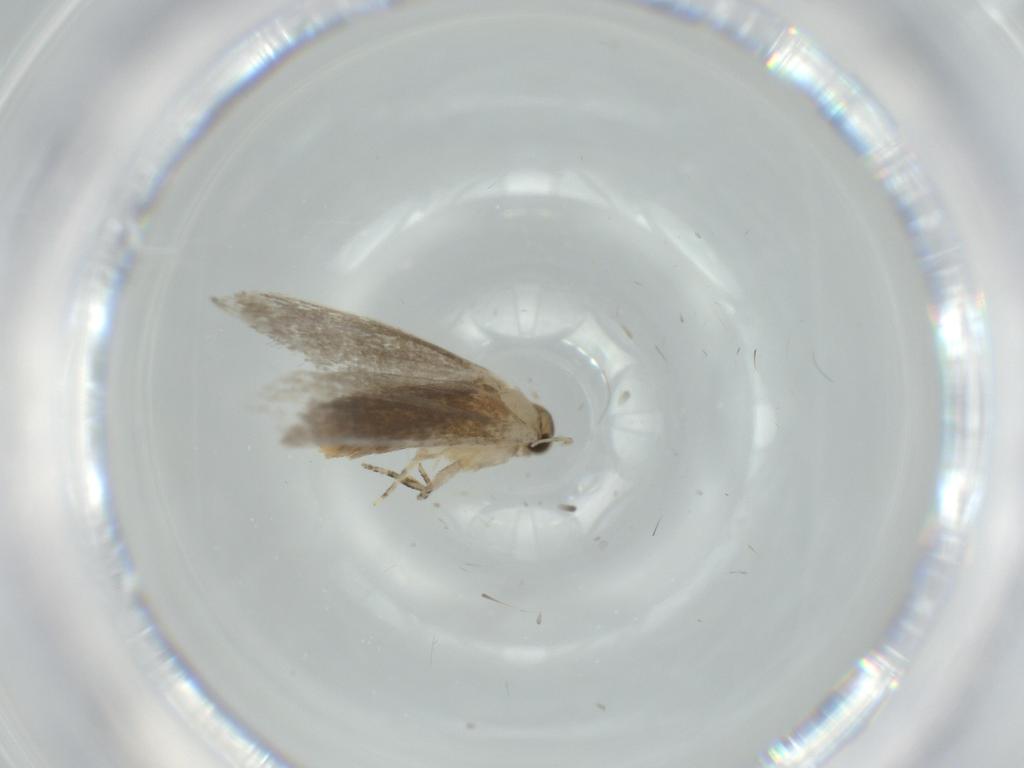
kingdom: Animalia
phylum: Arthropoda
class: Insecta
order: Lepidoptera
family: Tineidae
